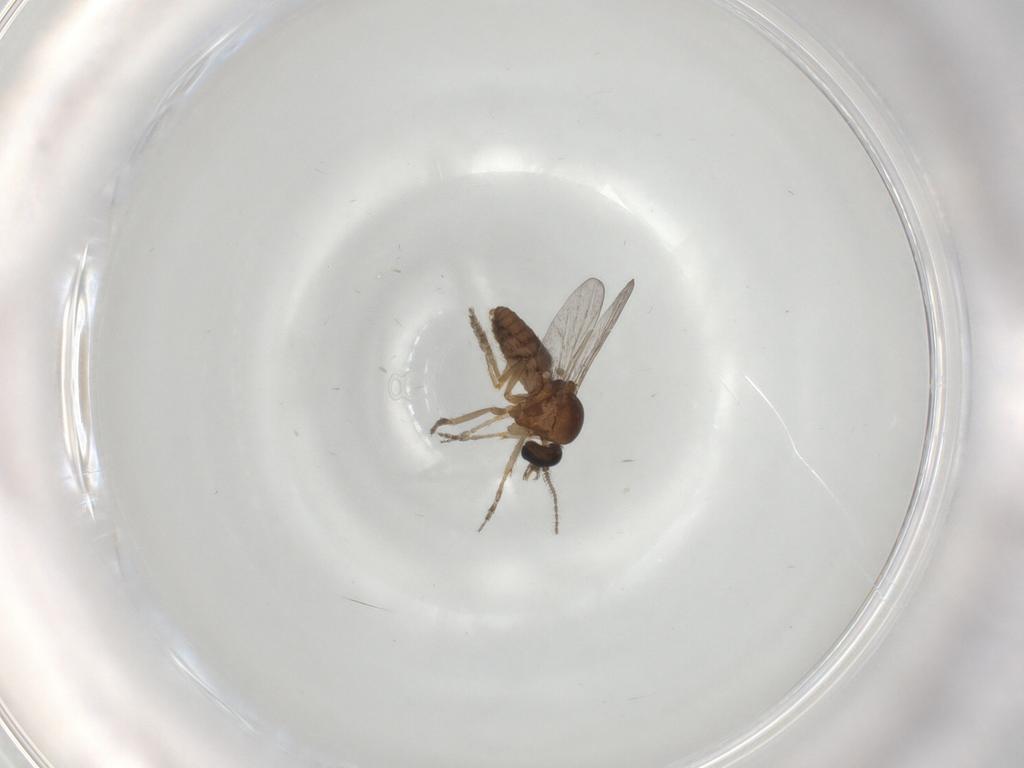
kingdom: Animalia
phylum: Arthropoda
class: Insecta
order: Diptera
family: Ceratopogonidae
